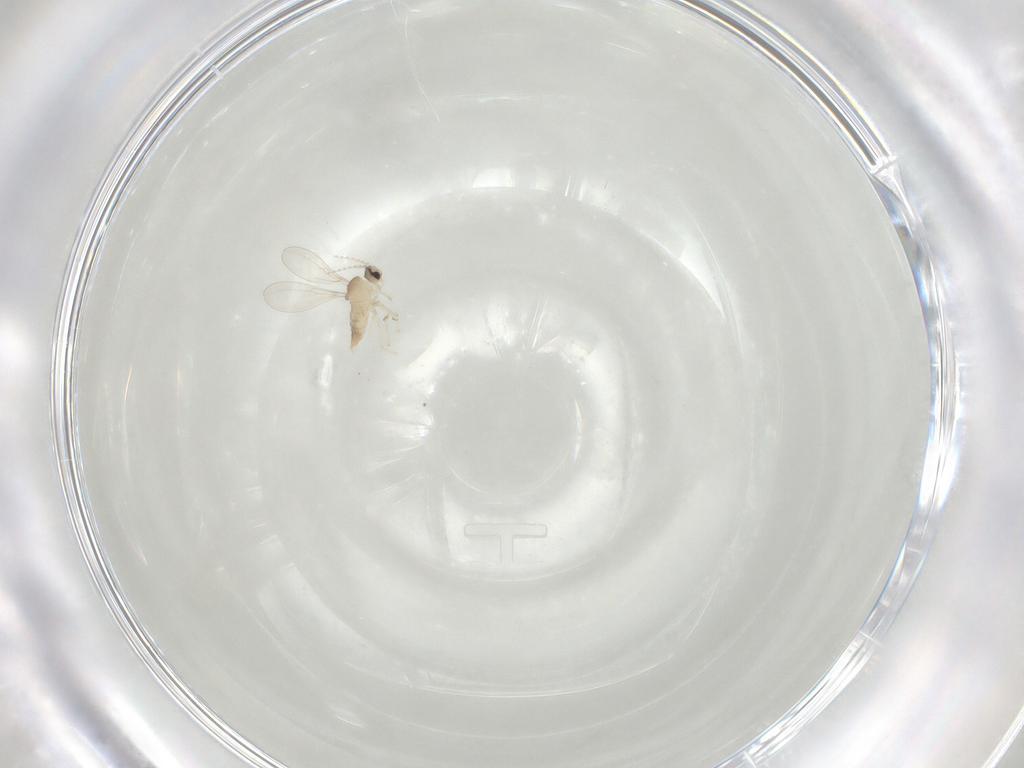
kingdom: Animalia
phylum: Arthropoda
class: Insecta
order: Diptera
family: Cecidomyiidae
